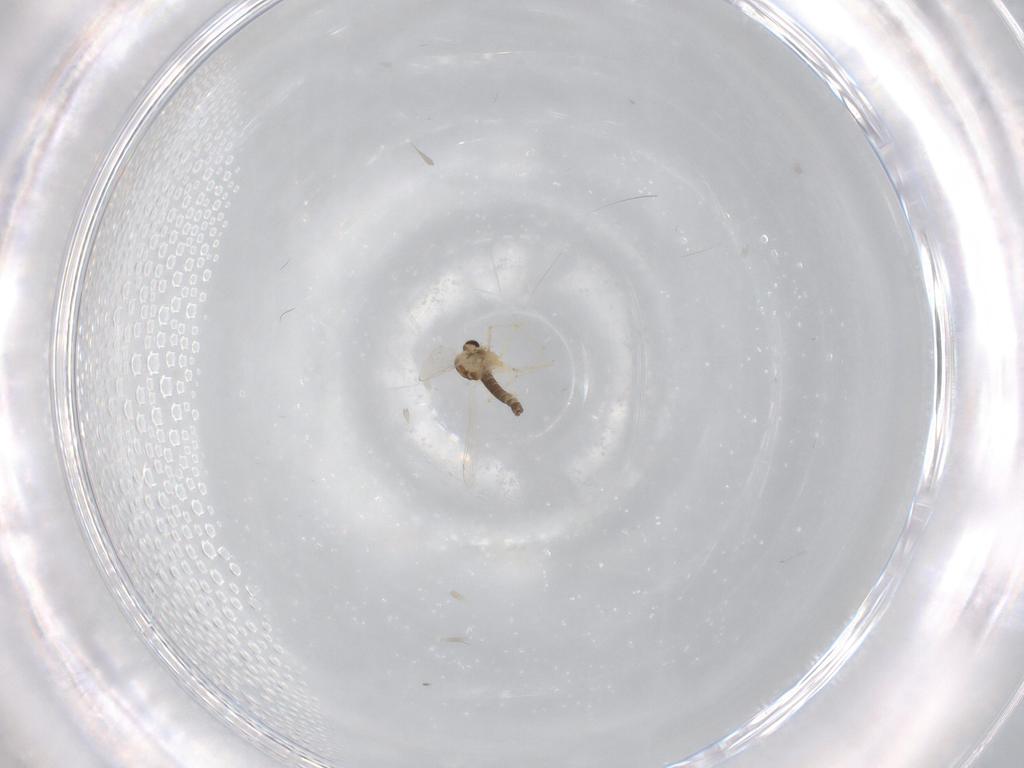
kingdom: Animalia
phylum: Arthropoda
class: Insecta
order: Diptera
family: Chironomidae
